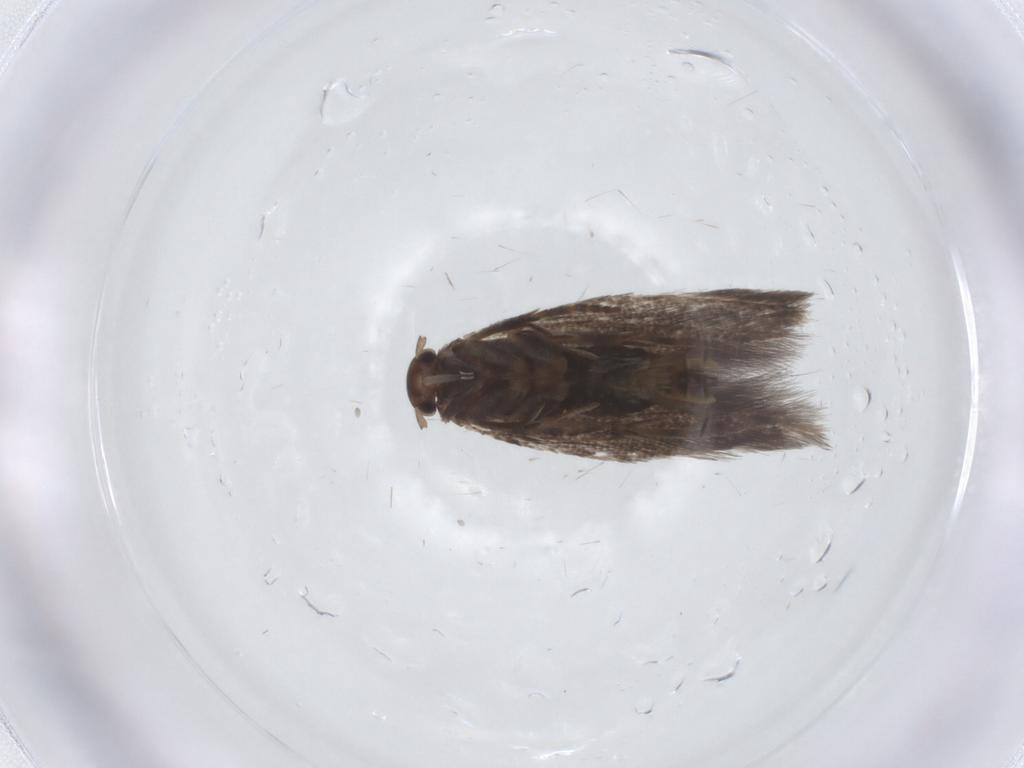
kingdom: Animalia
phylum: Arthropoda
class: Insecta
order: Lepidoptera
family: Elachistidae
